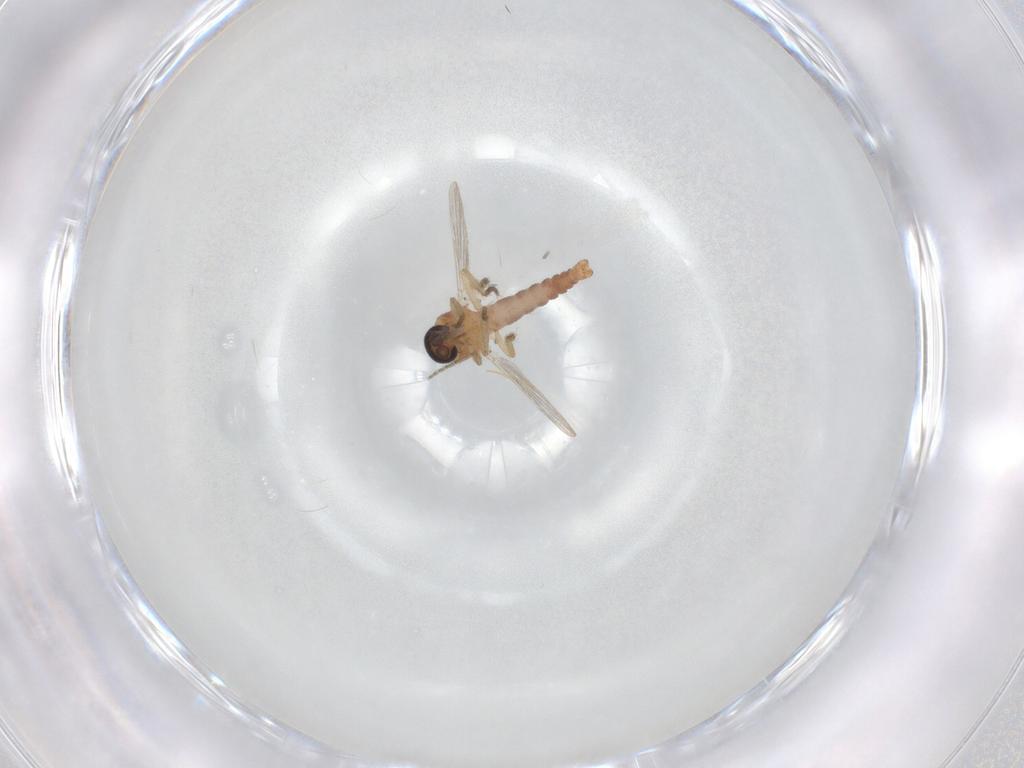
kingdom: Animalia
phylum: Arthropoda
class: Insecta
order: Diptera
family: Ceratopogonidae
